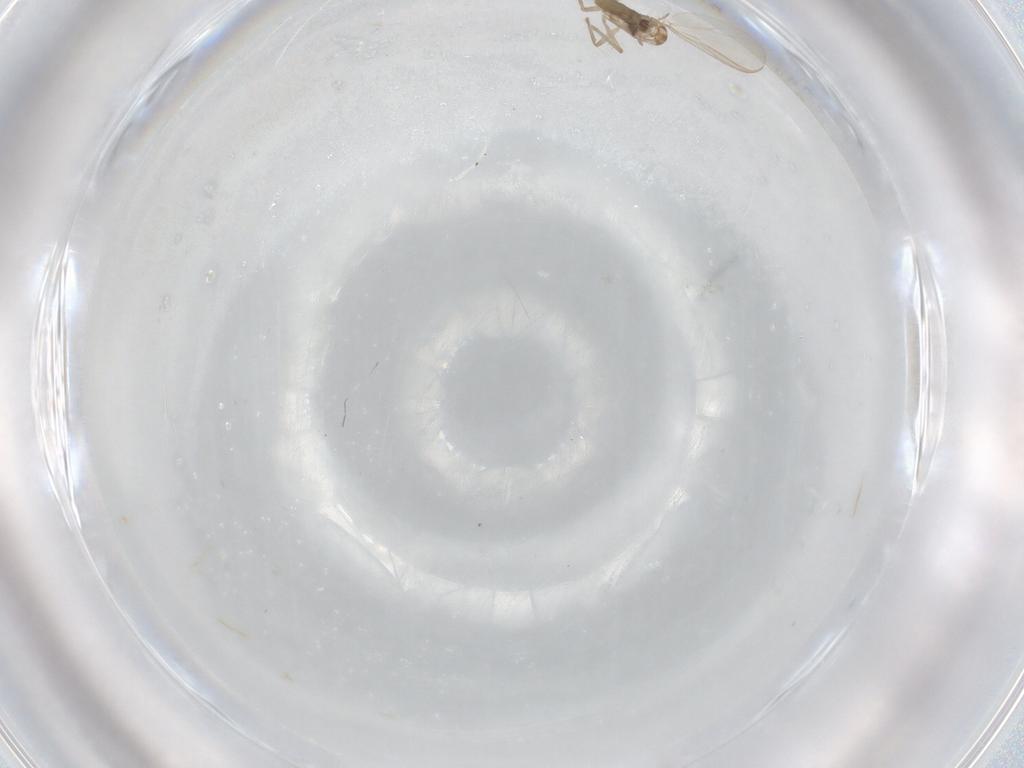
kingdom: Animalia
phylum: Arthropoda
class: Insecta
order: Diptera
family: Chironomidae
